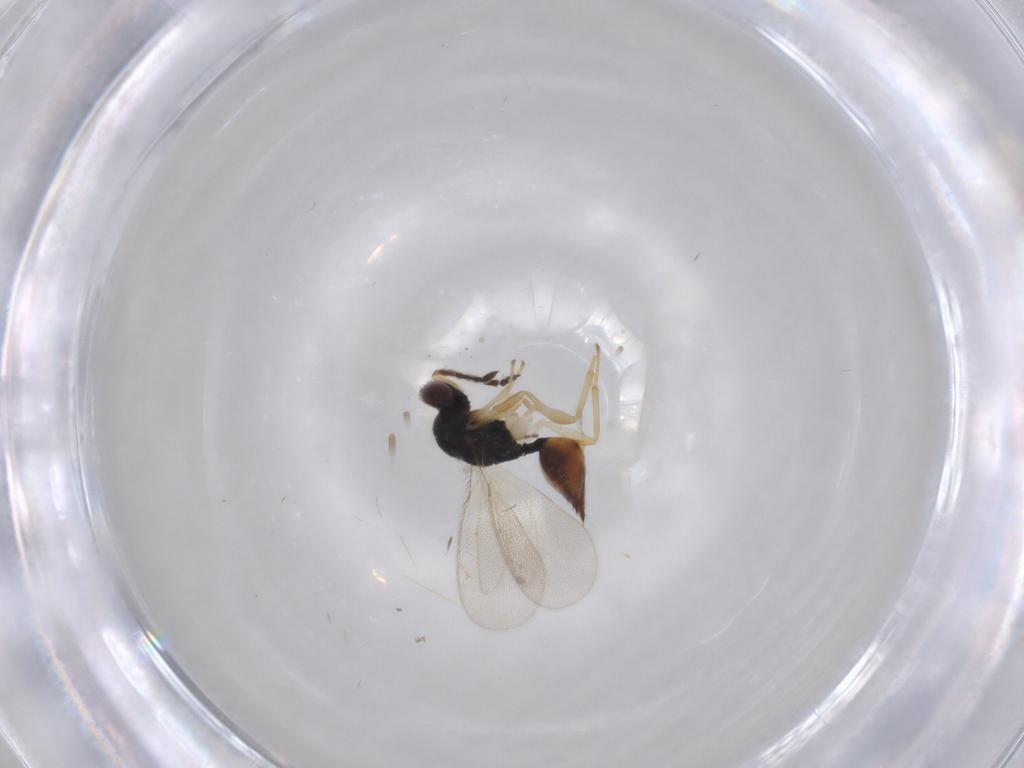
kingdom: Animalia
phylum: Arthropoda
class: Insecta
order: Hymenoptera
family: Eulophidae
